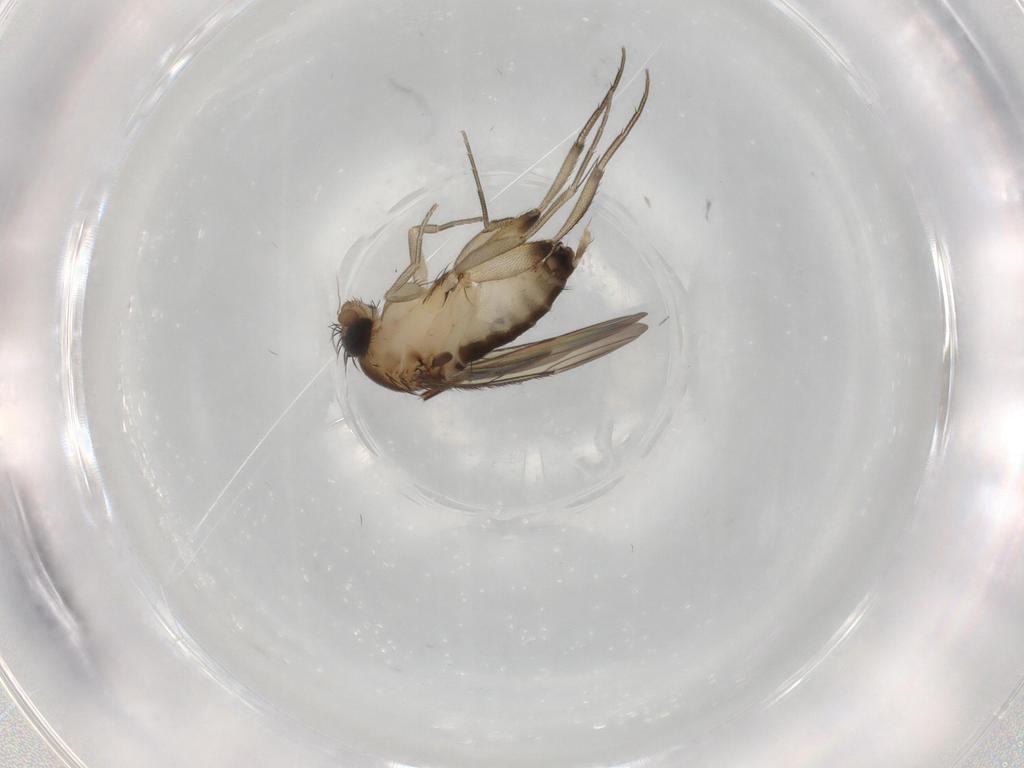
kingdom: Animalia
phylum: Arthropoda
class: Insecta
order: Diptera
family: Phoridae
